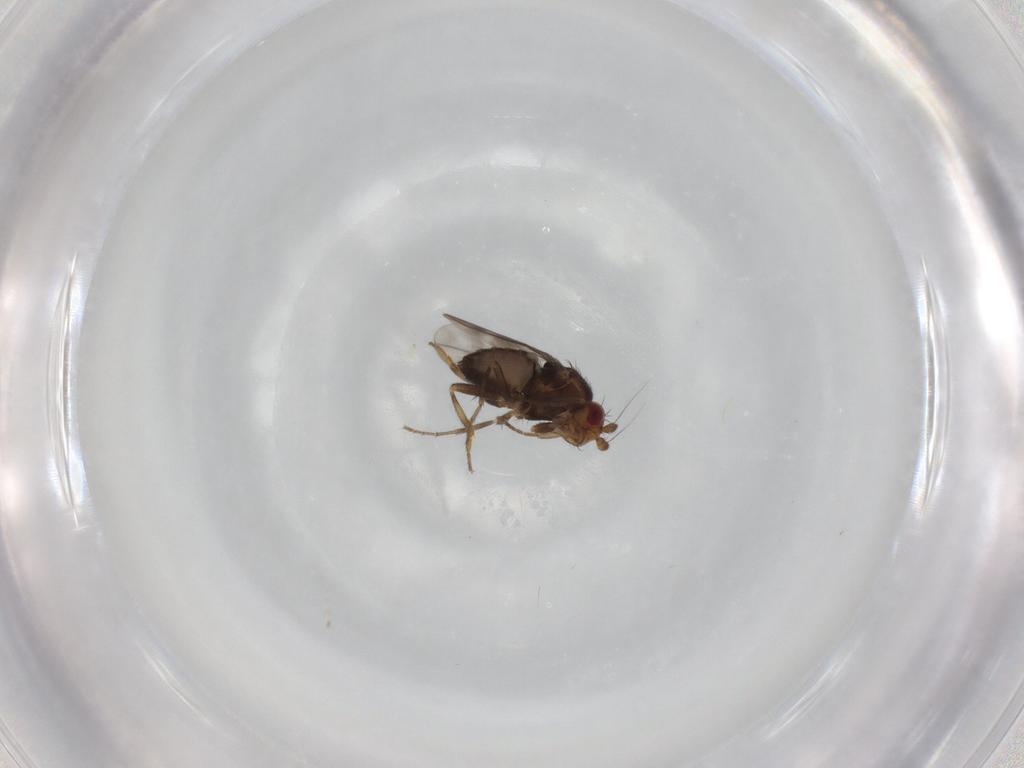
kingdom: Animalia
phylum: Arthropoda
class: Insecta
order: Diptera
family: Sphaeroceridae
